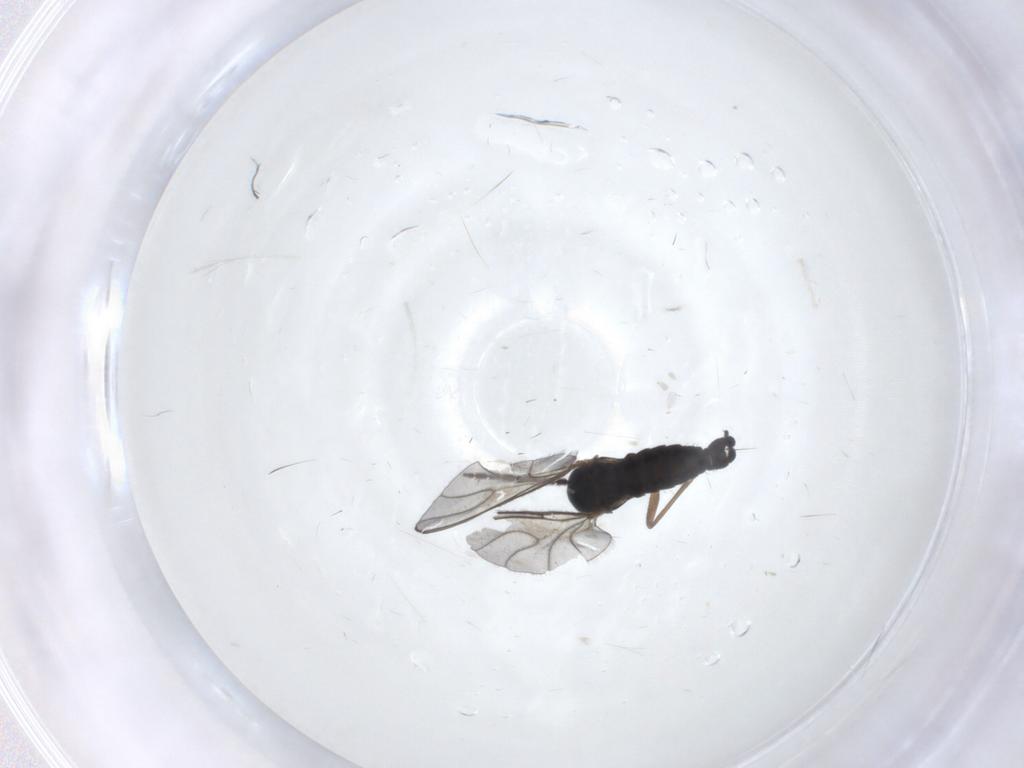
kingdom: Animalia
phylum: Arthropoda
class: Insecta
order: Diptera
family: Sciaridae
